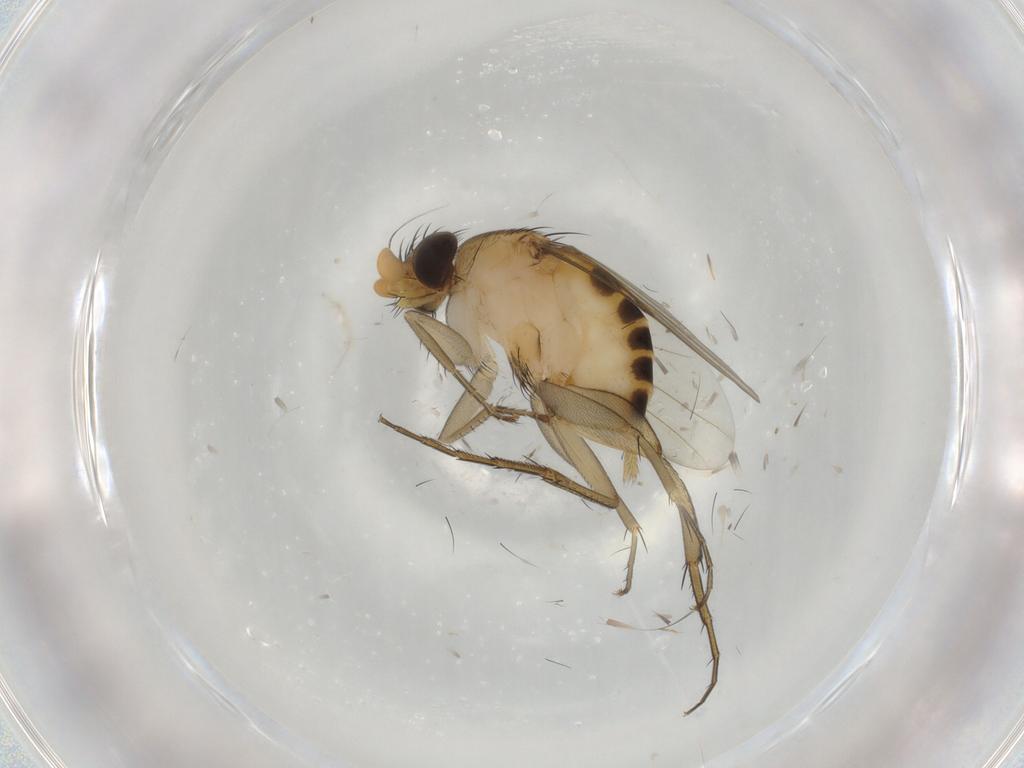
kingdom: Animalia
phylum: Arthropoda
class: Insecta
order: Diptera
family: Phoridae
